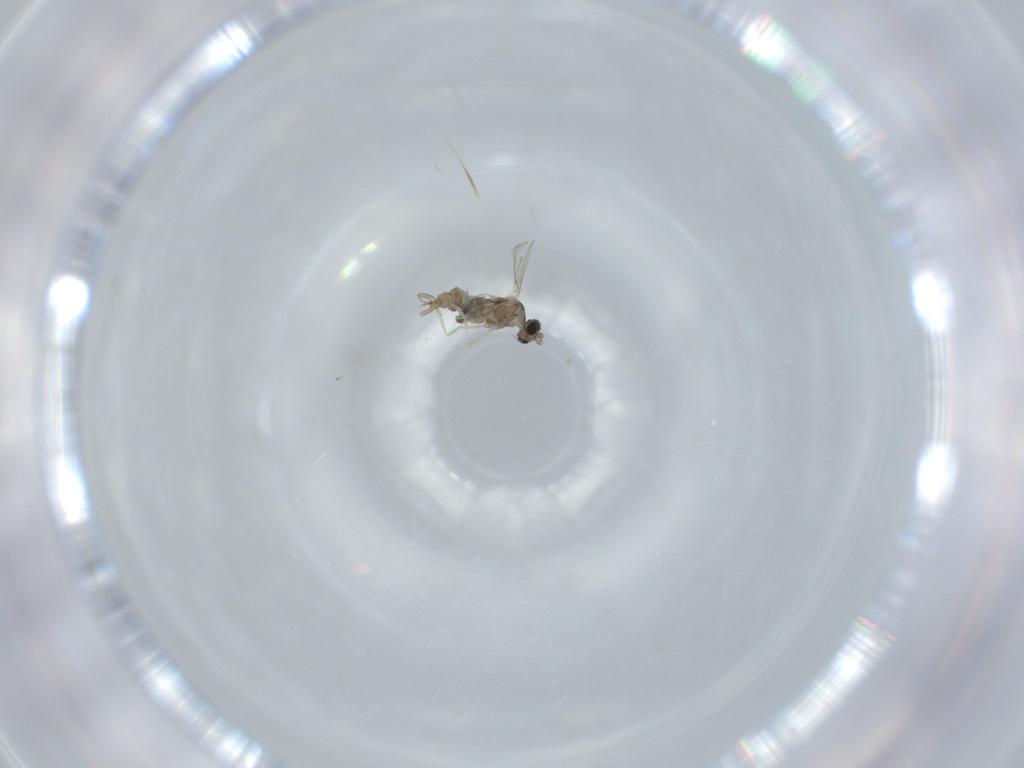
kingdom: Animalia
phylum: Arthropoda
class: Insecta
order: Diptera
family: Cecidomyiidae
